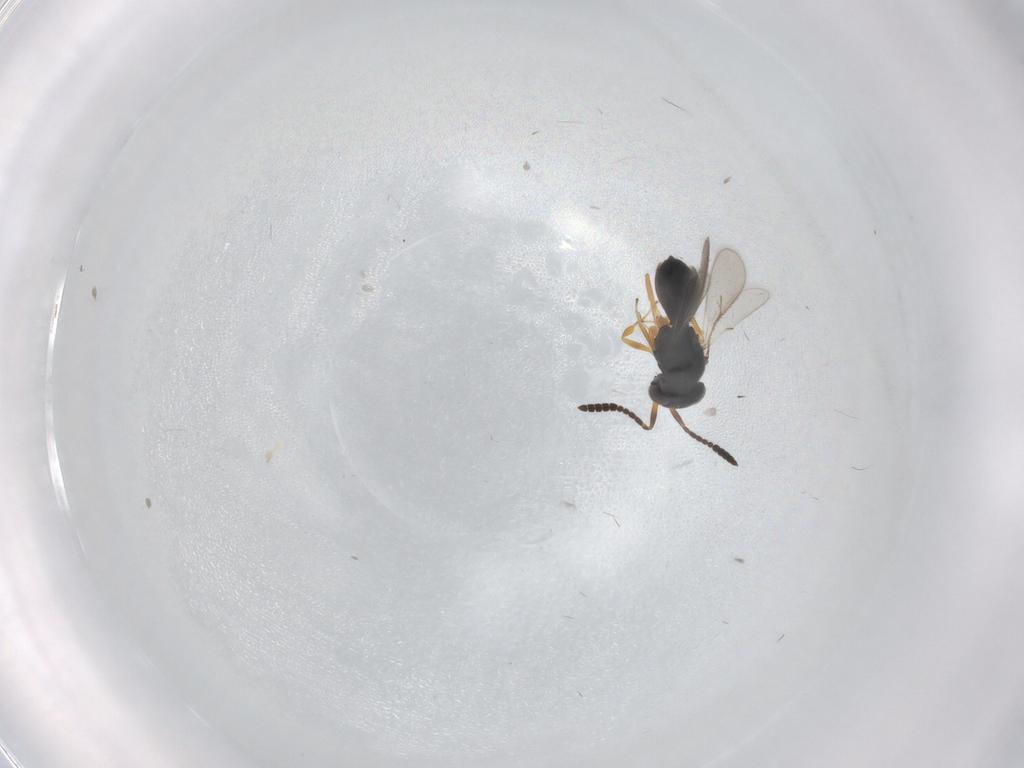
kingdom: Animalia
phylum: Arthropoda
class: Insecta
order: Hymenoptera
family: Scelionidae
